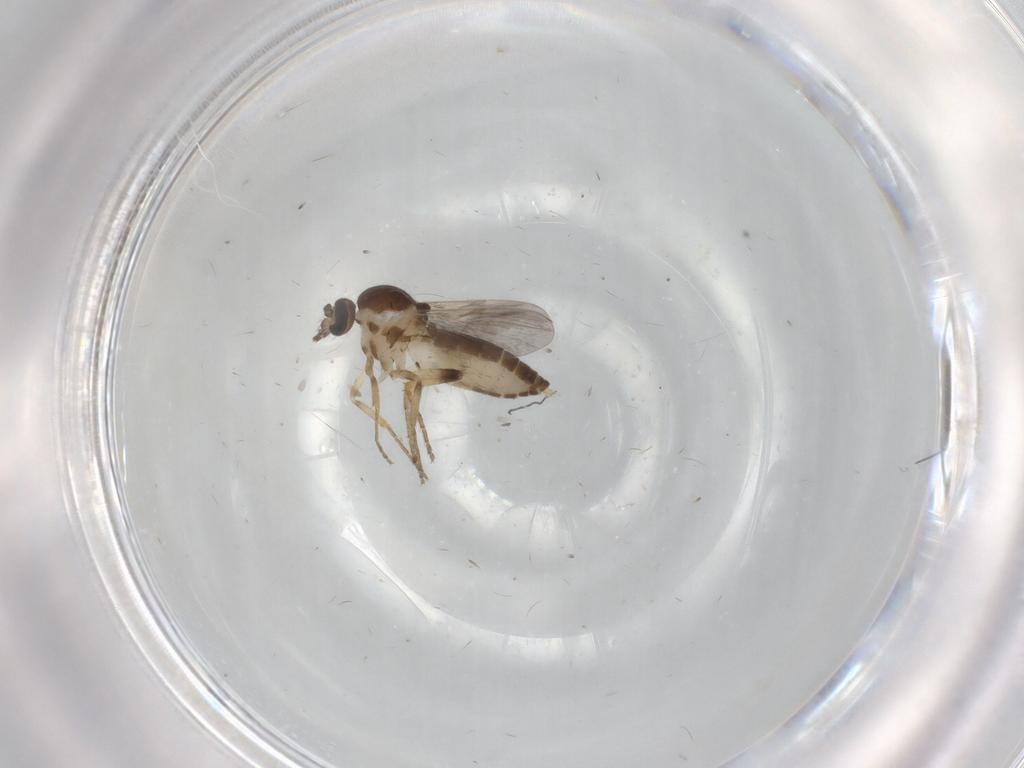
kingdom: Animalia
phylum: Arthropoda
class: Insecta
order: Diptera
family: Ceratopogonidae
